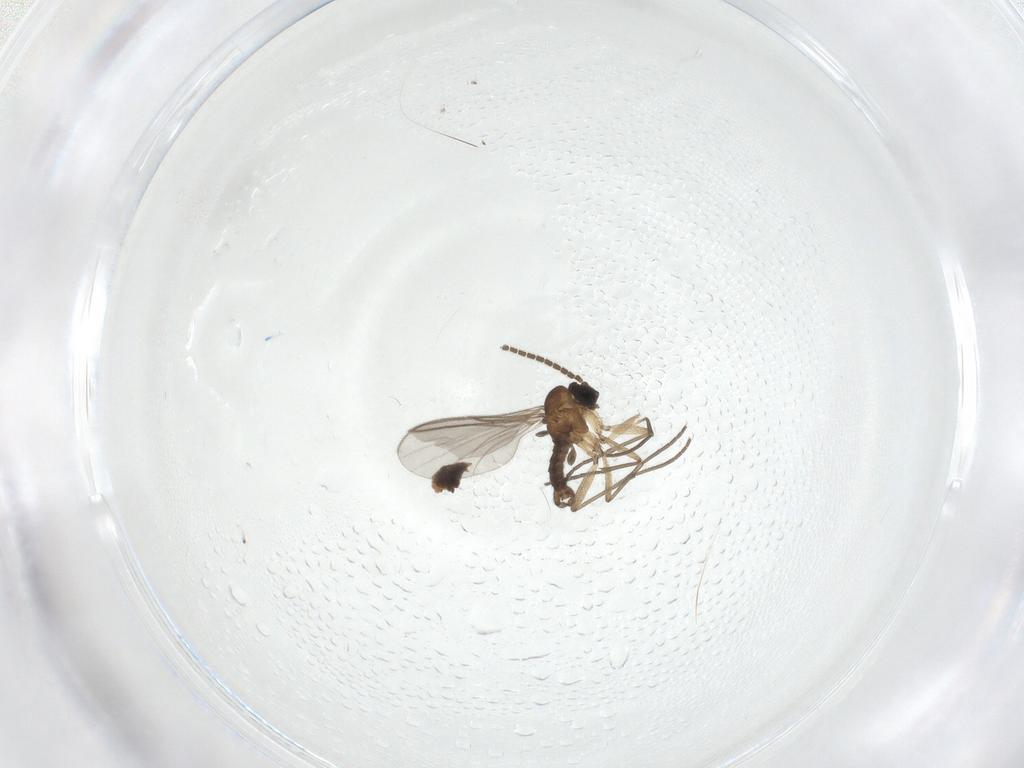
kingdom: Animalia
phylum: Arthropoda
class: Insecta
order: Diptera
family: Sciaridae
